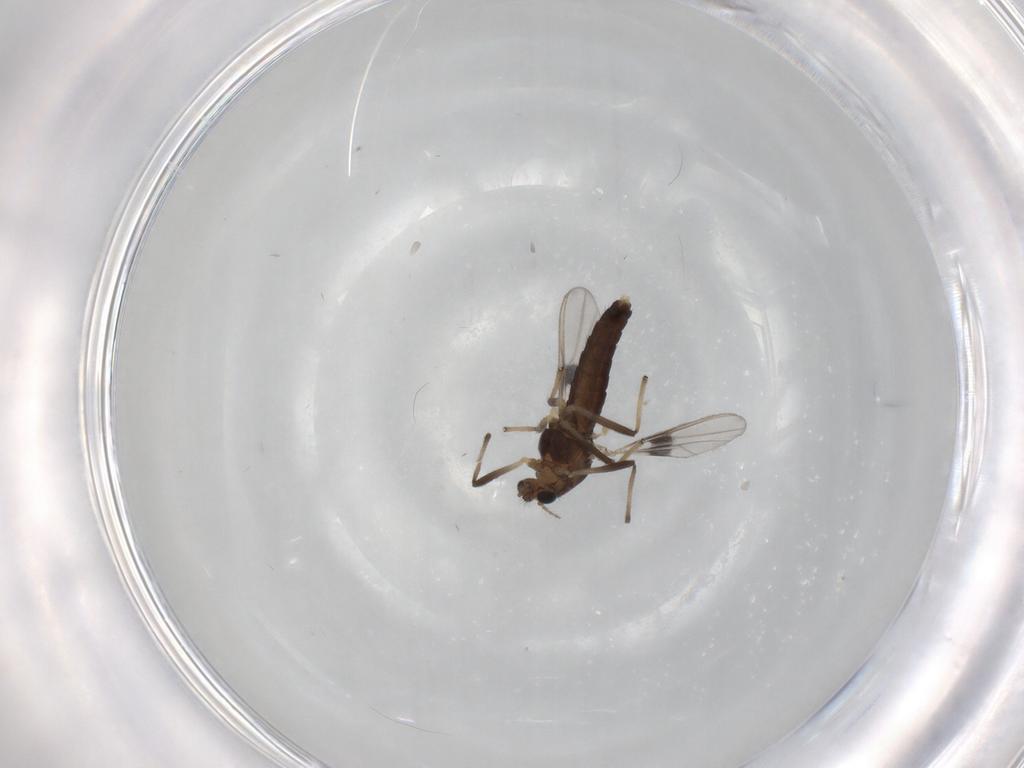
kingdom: Animalia
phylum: Arthropoda
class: Insecta
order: Diptera
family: Chironomidae
